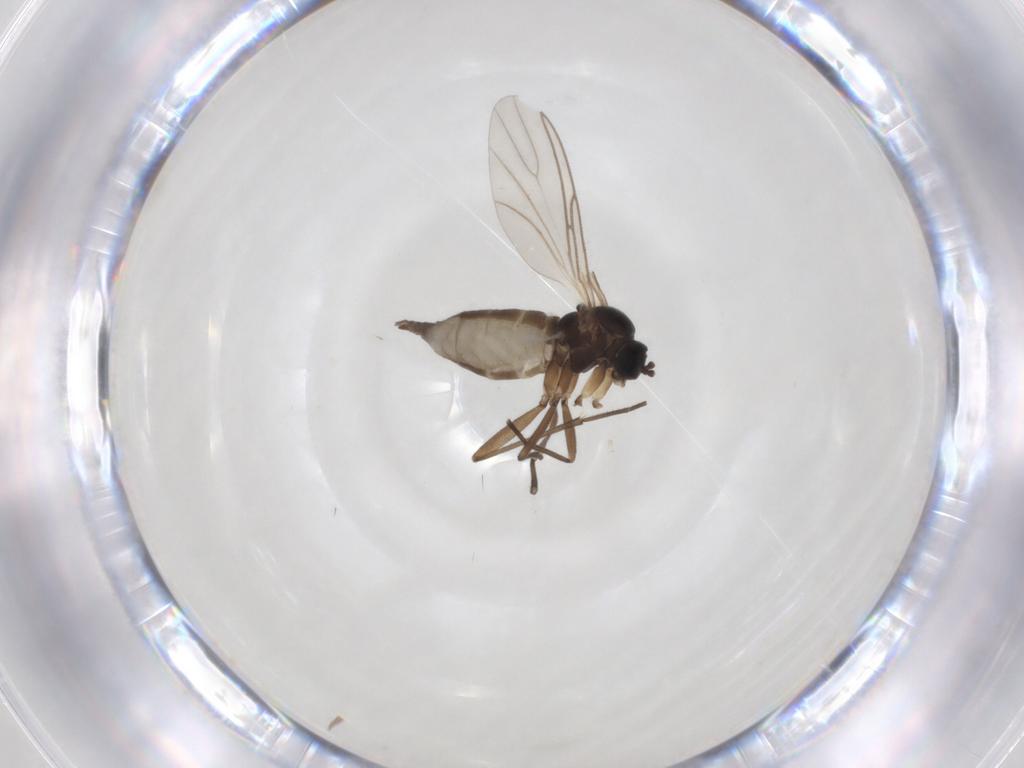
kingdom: Animalia
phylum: Arthropoda
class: Insecta
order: Diptera
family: Sciaridae
